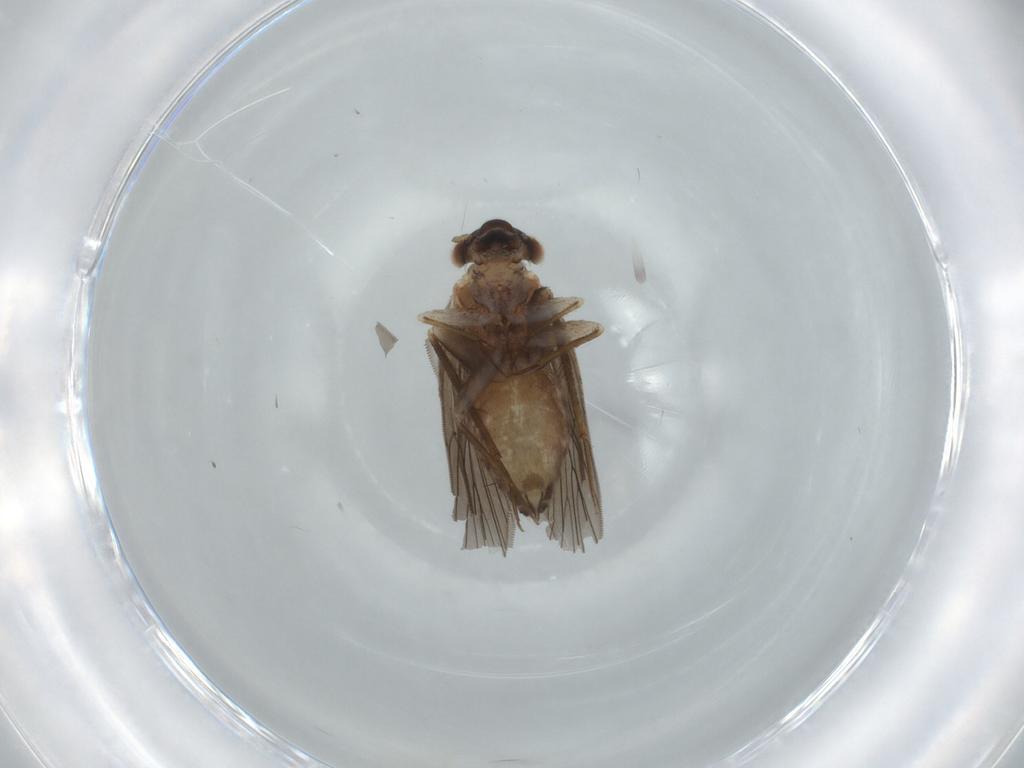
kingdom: Animalia
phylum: Arthropoda
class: Insecta
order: Psocodea
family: Lepidopsocidae
